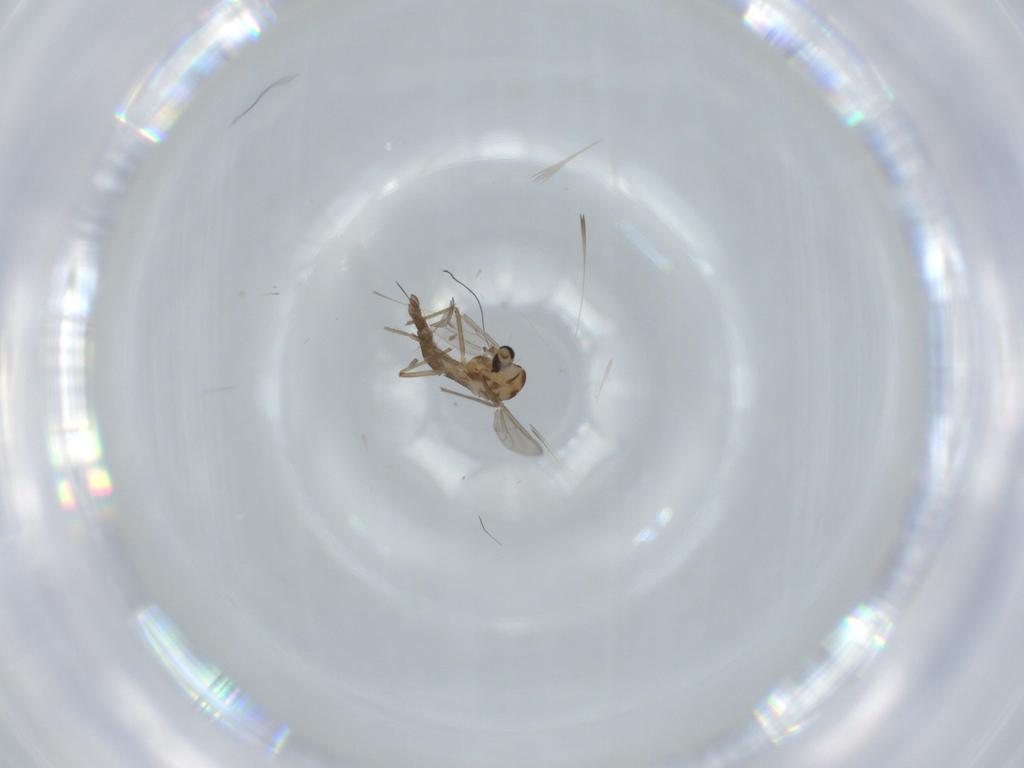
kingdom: Animalia
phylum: Arthropoda
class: Insecta
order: Diptera
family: Chironomidae
